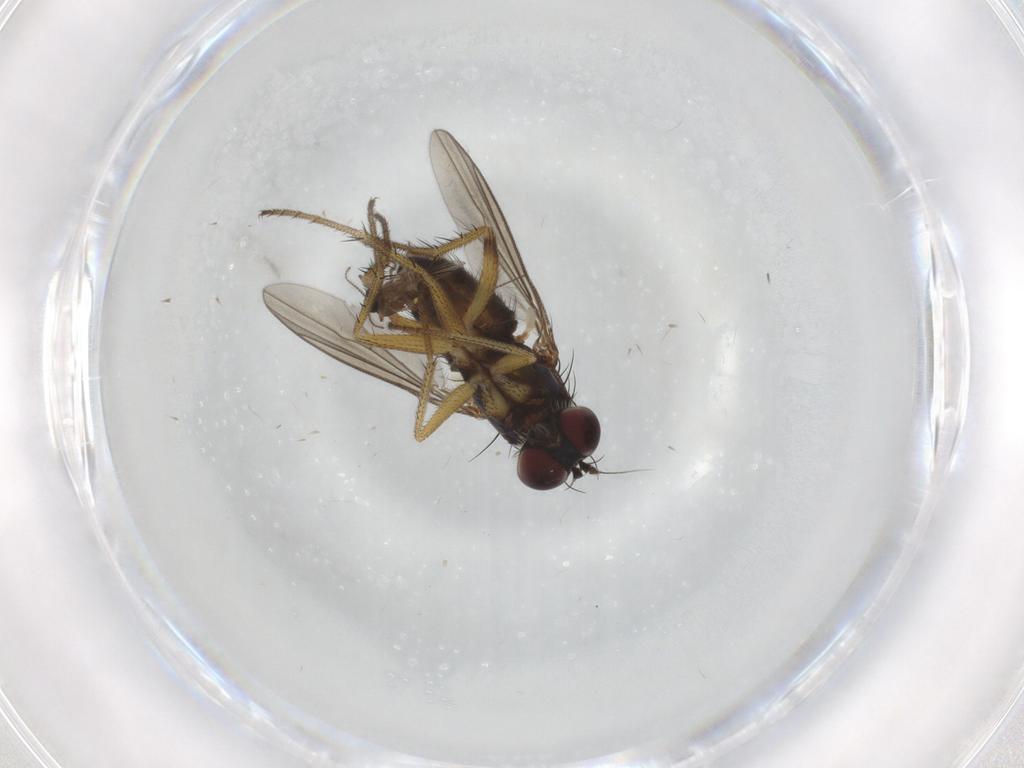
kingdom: Animalia
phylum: Arthropoda
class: Insecta
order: Diptera
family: Dolichopodidae
